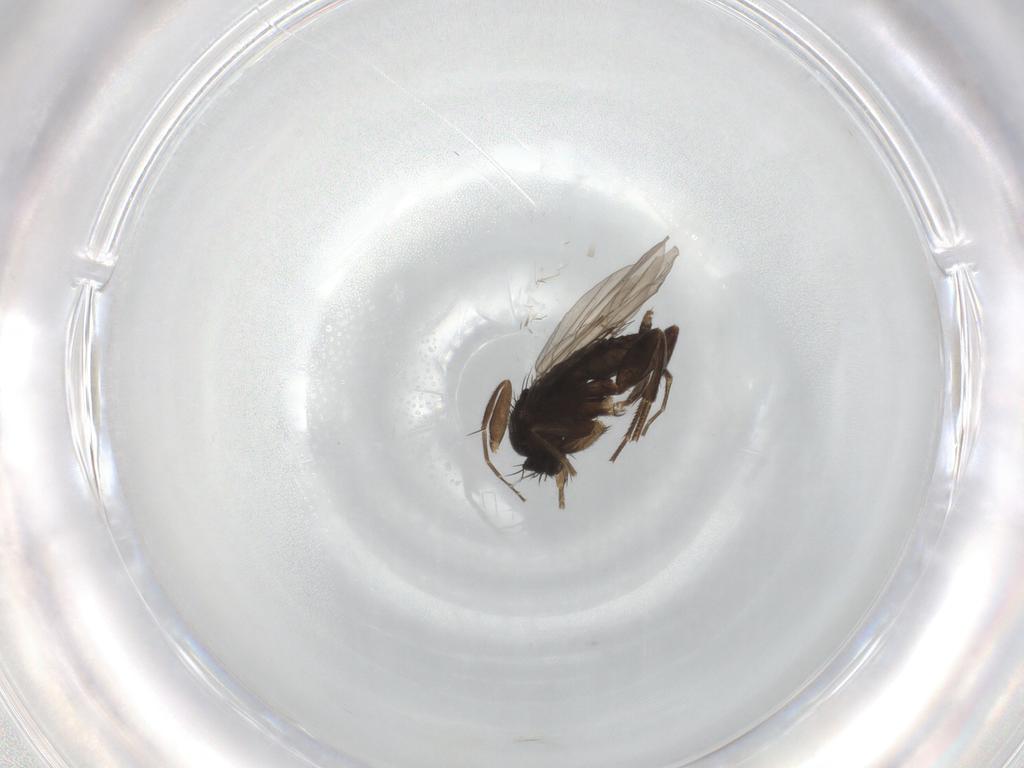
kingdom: Animalia
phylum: Arthropoda
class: Insecta
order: Diptera
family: Phoridae
